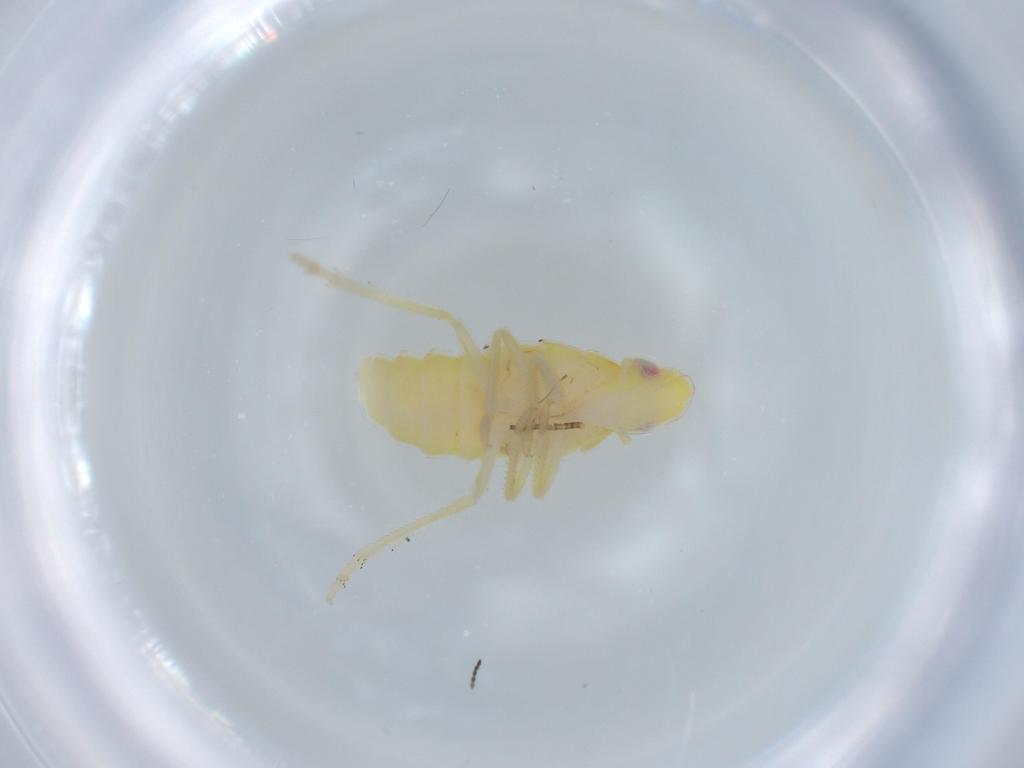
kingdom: Animalia
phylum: Arthropoda
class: Insecta
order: Hemiptera
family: Tropiduchidae
